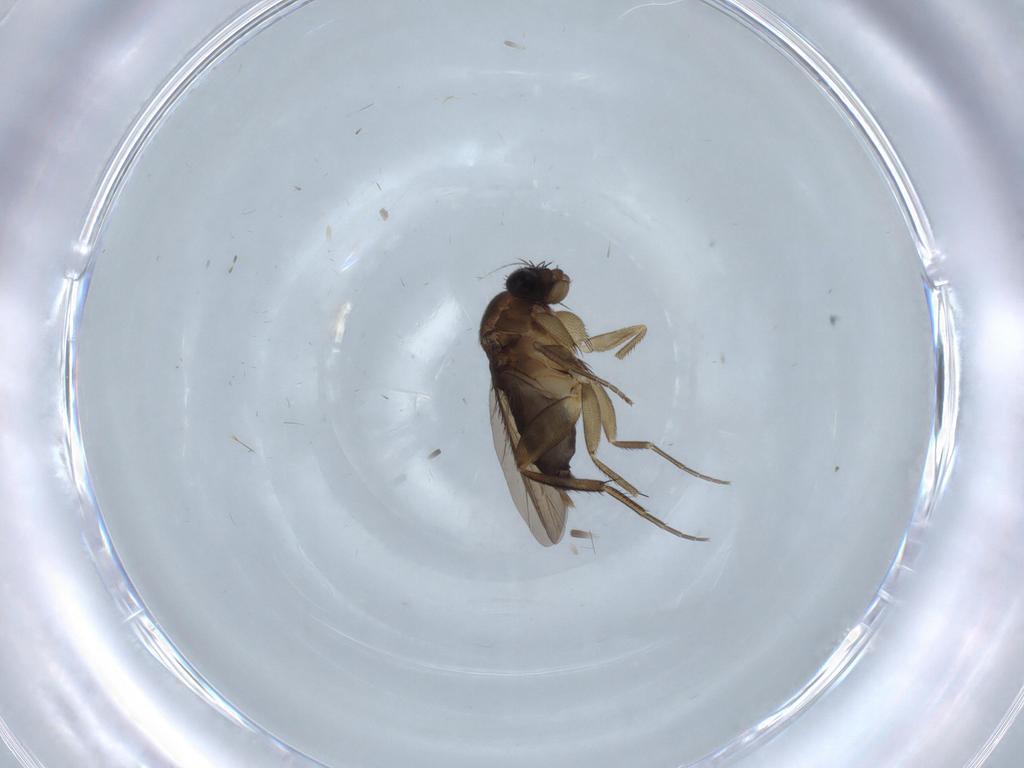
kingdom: Animalia
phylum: Arthropoda
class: Insecta
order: Diptera
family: Phoridae
